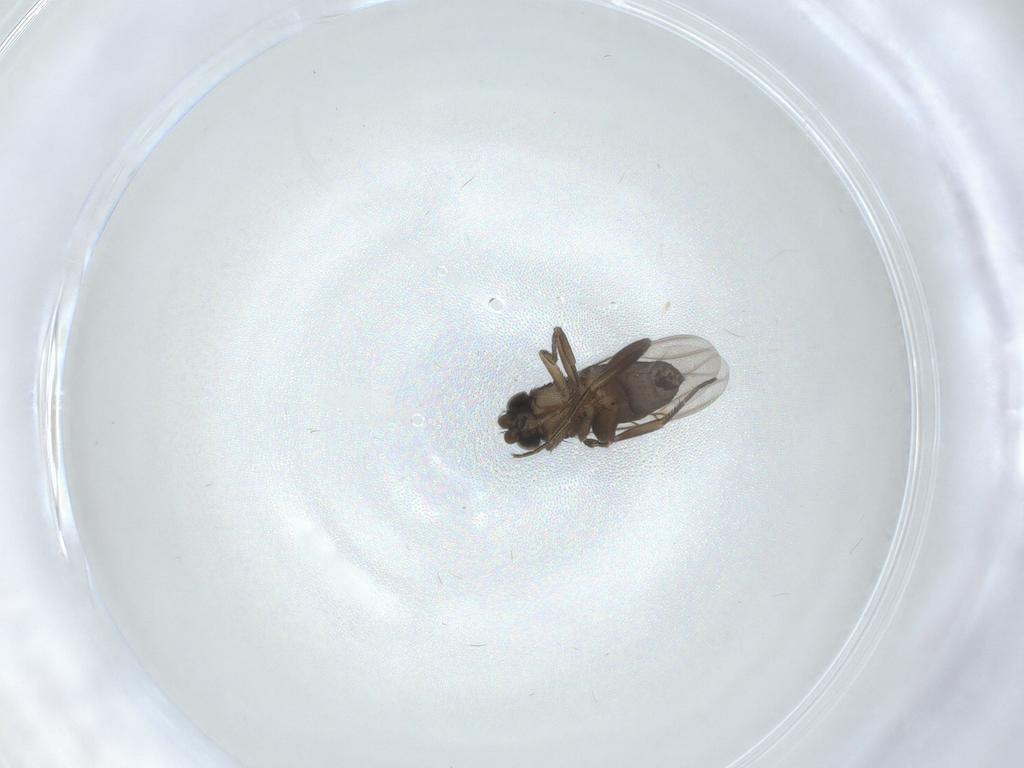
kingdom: Animalia
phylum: Arthropoda
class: Insecta
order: Diptera
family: Phoridae
